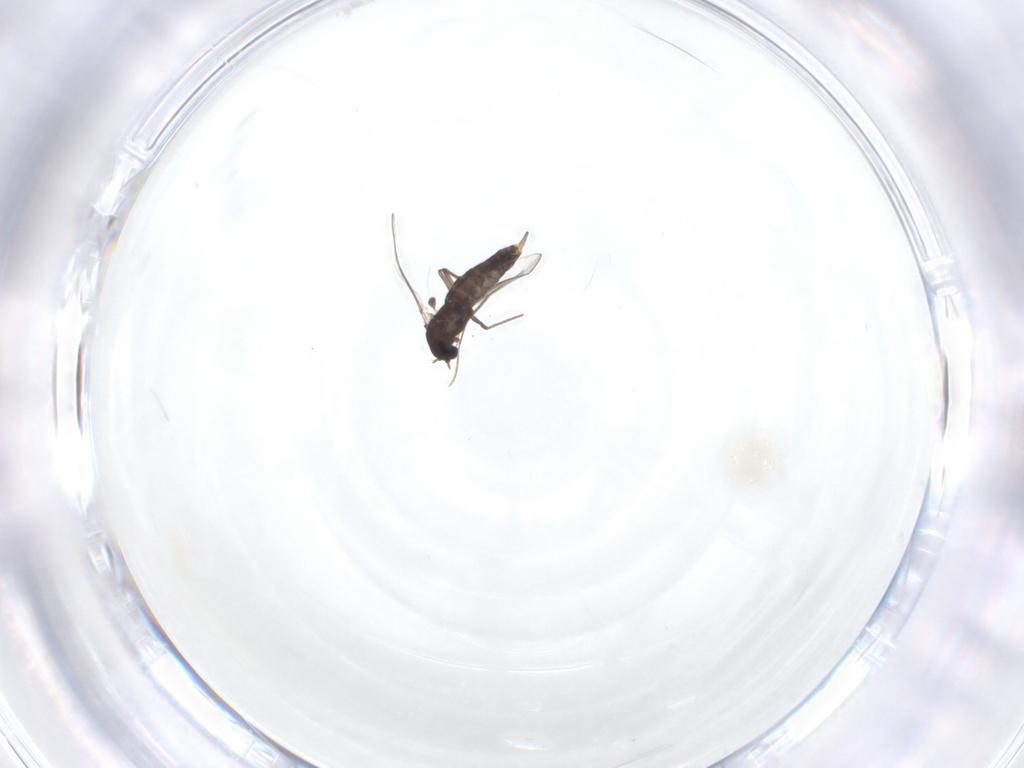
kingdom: Animalia
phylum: Arthropoda
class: Insecta
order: Diptera
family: Chironomidae
